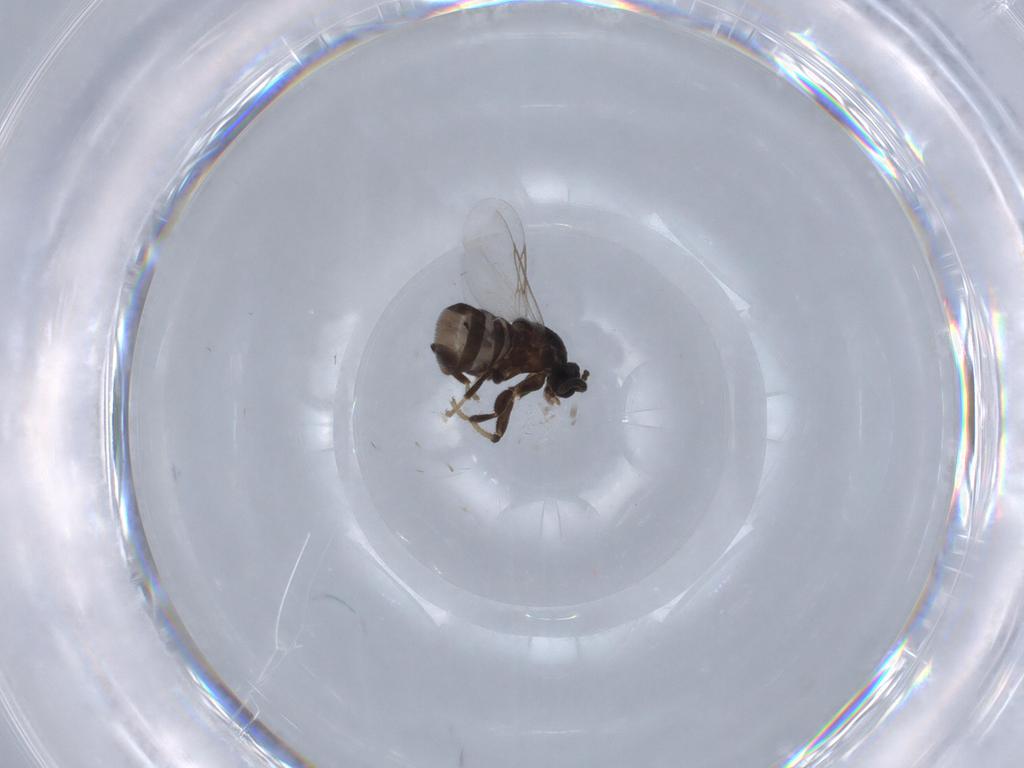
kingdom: Animalia
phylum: Arthropoda
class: Insecta
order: Diptera
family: Scatopsidae
